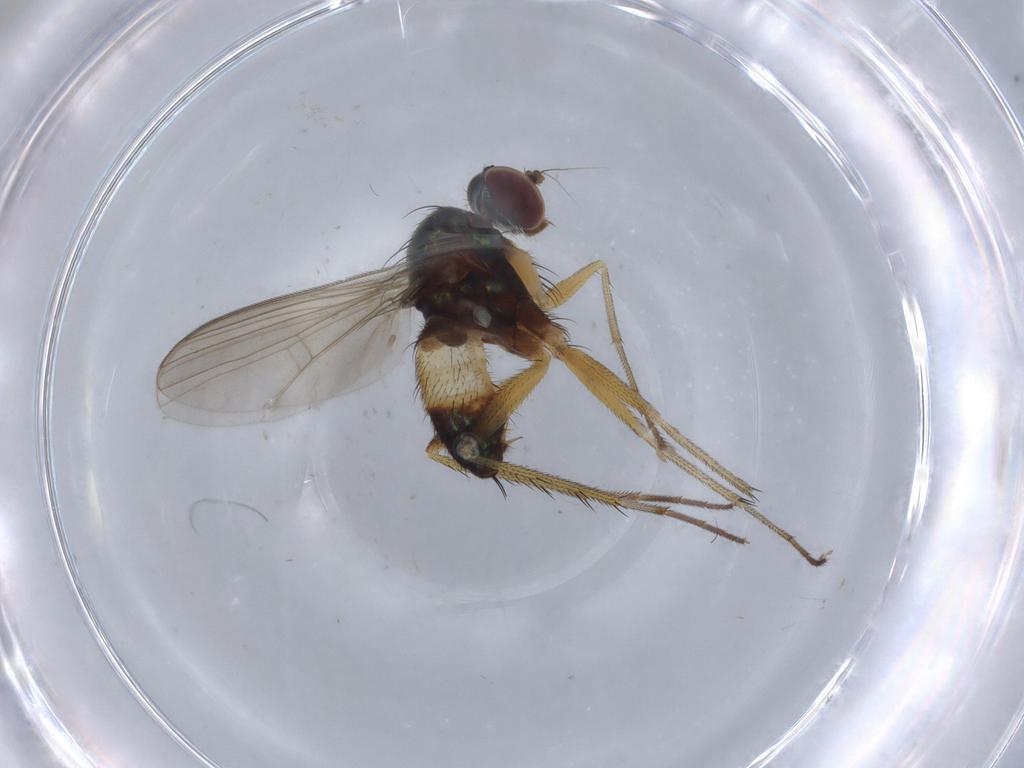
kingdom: Animalia
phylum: Arthropoda
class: Insecta
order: Diptera
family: Dolichopodidae
